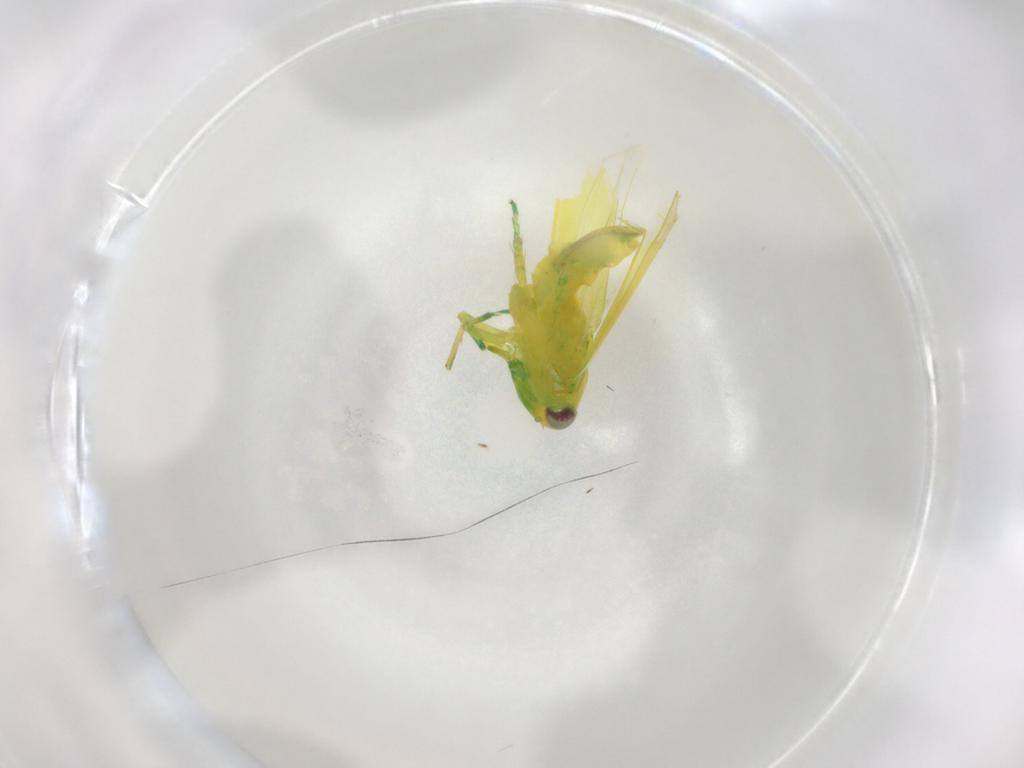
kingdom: Animalia
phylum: Arthropoda
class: Insecta
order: Hemiptera
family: Cicadellidae
